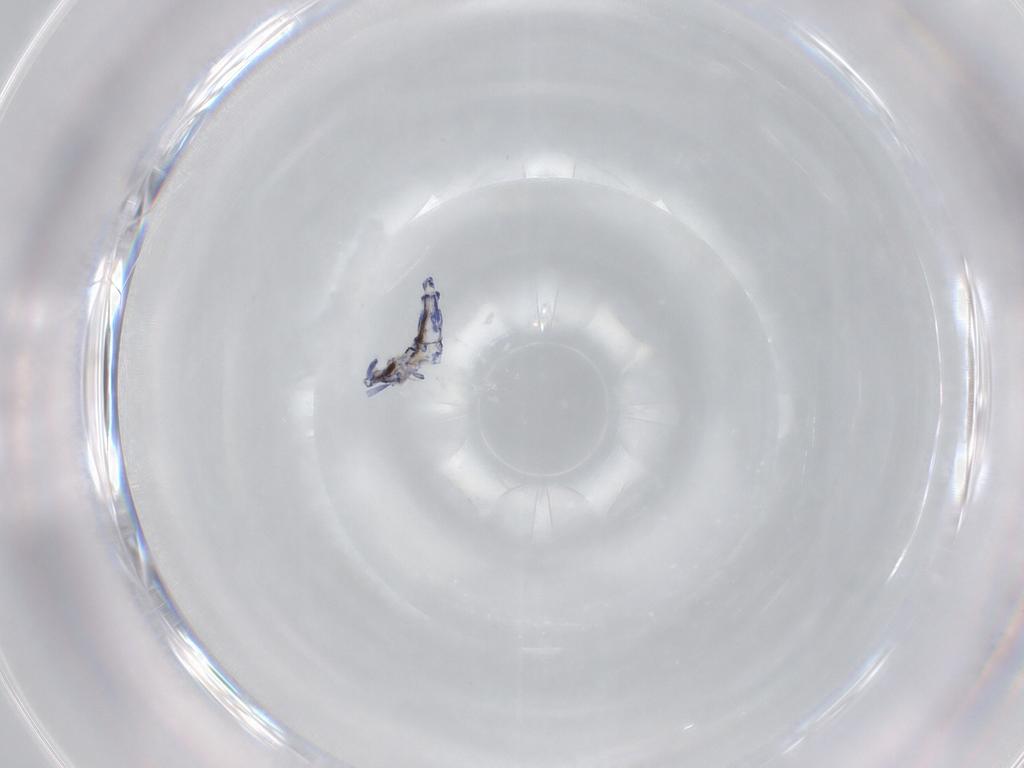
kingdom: Animalia
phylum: Arthropoda
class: Collembola
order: Entomobryomorpha
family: Entomobryidae
